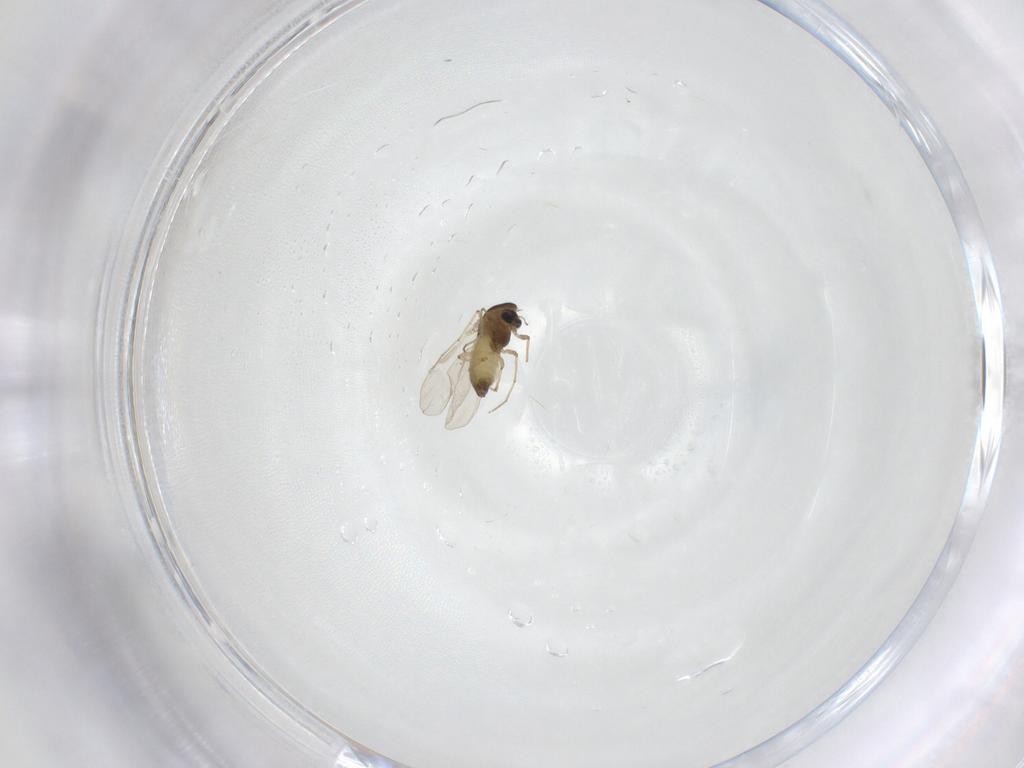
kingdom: Animalia
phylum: Arthropoda
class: Insecta
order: Diptera
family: Chironomidae
